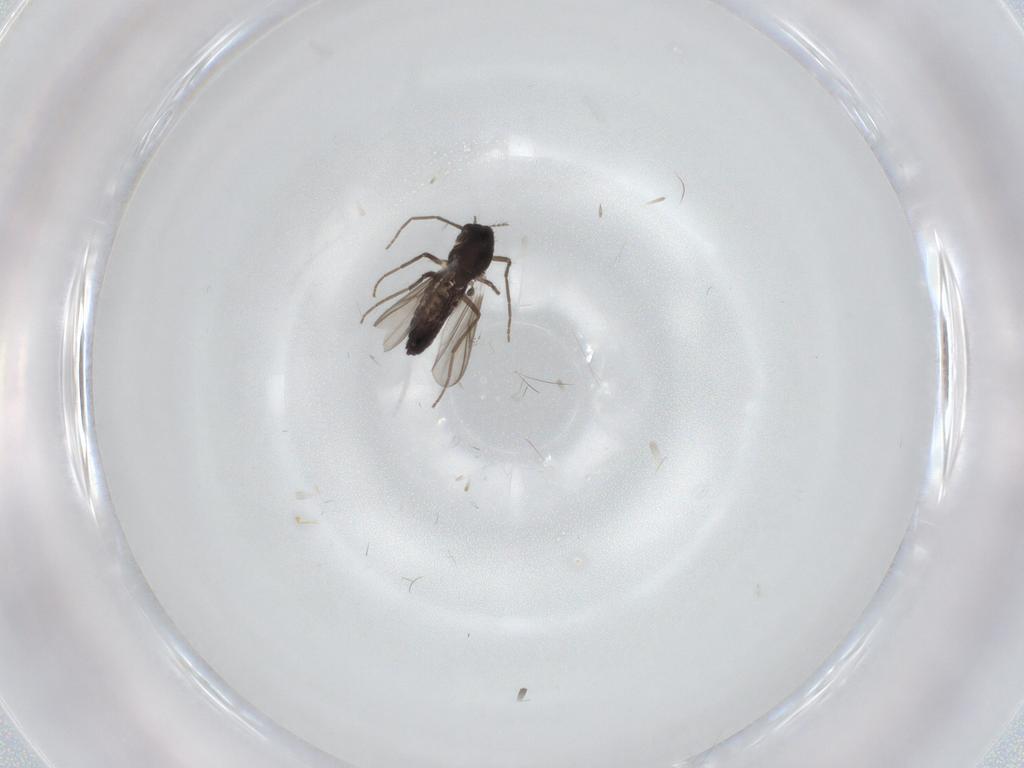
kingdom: Animalia
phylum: Arthropoda
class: Insecta
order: Diptera
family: Chironomidae
